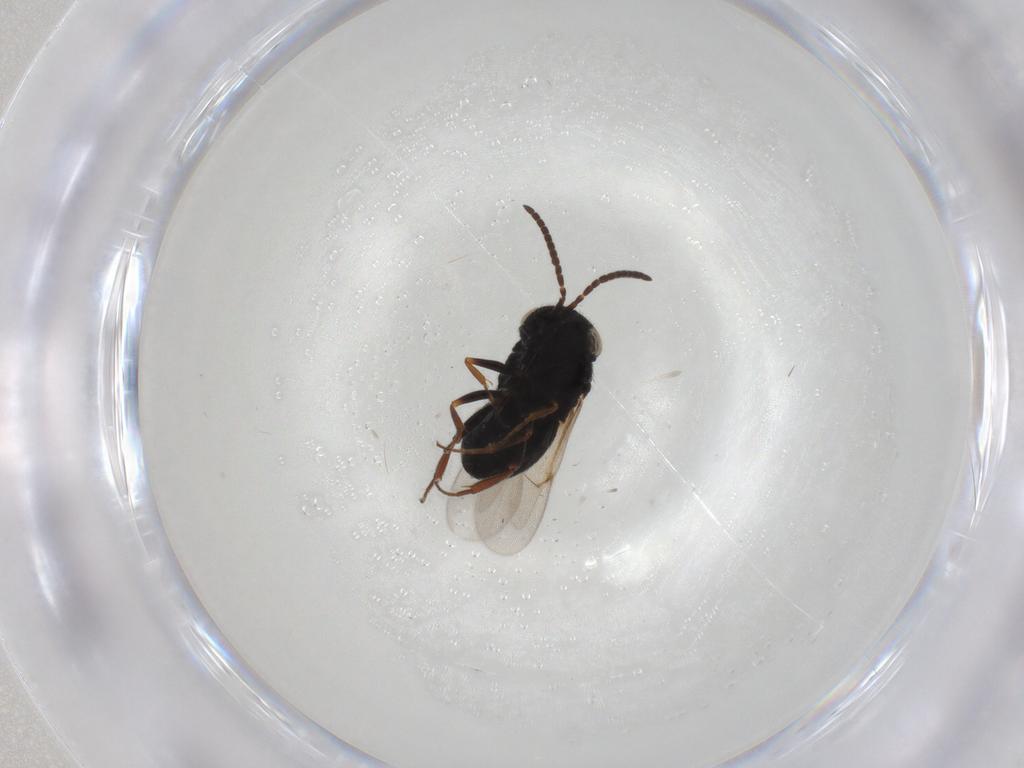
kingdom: Animalia
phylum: Arthropoda
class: Insecta
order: Hymenoptera
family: Scelionidae
